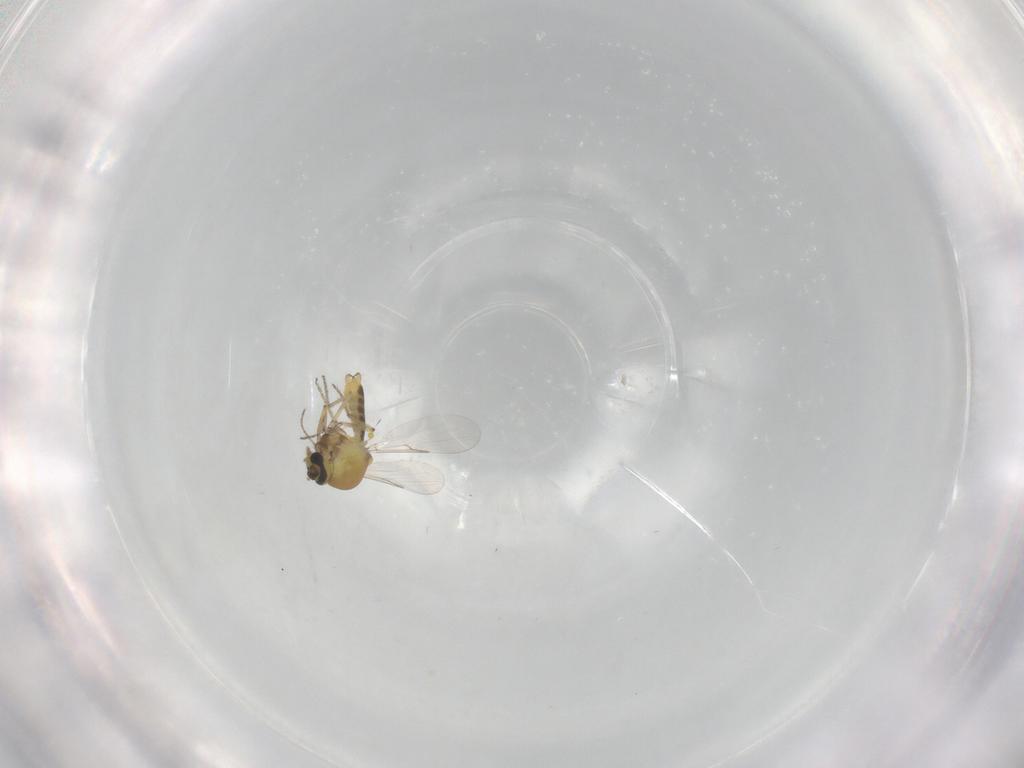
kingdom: Animalia
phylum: Arthropoda
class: Insecta
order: Diptera
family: Ceratopogonidae
